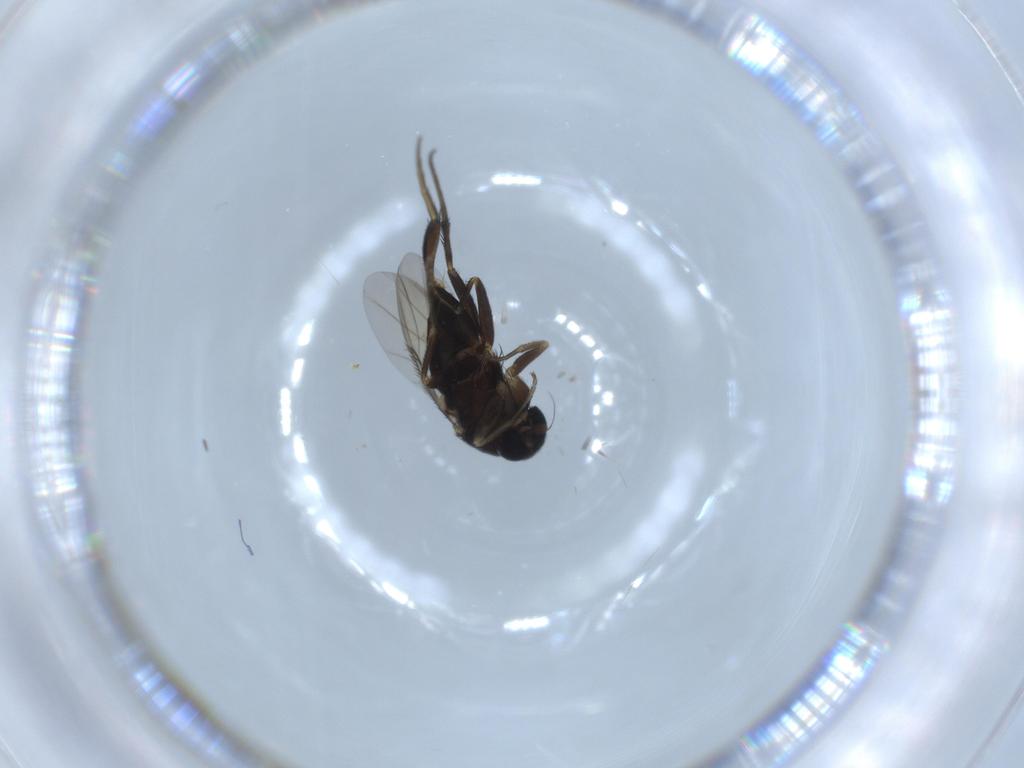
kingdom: Animalia
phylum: Arthropoda
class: Insecta
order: Diptera
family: Phoridae
